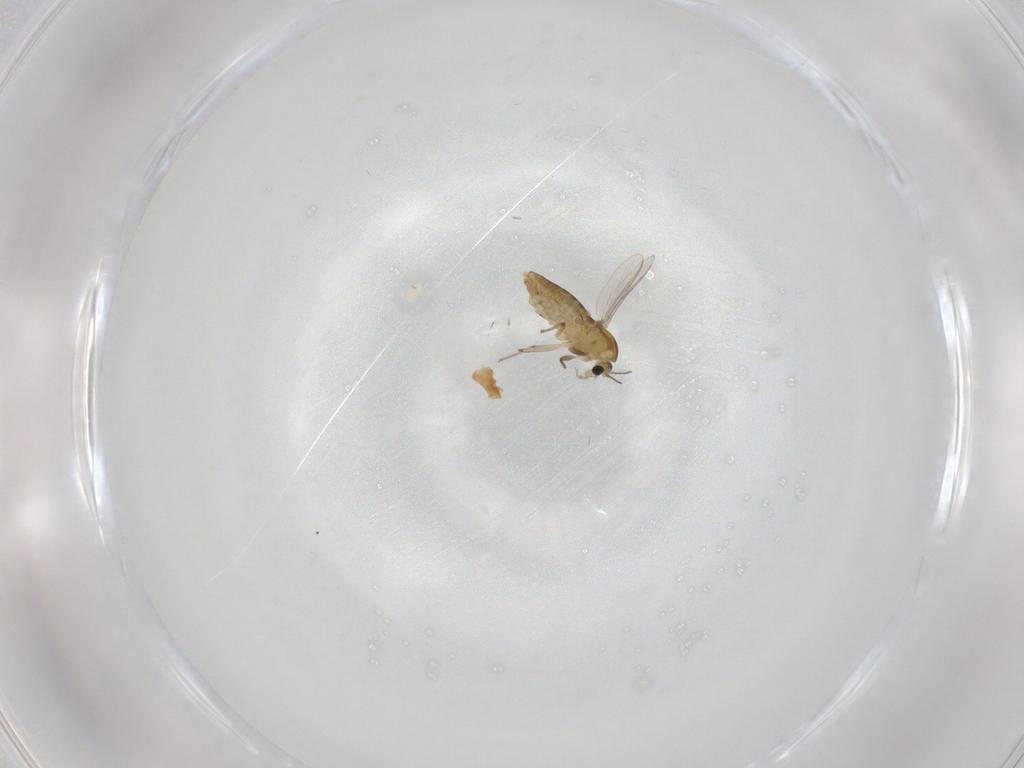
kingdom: Animalia
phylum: Arthropoda
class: Insecta
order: Diptera
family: Chironomidae
